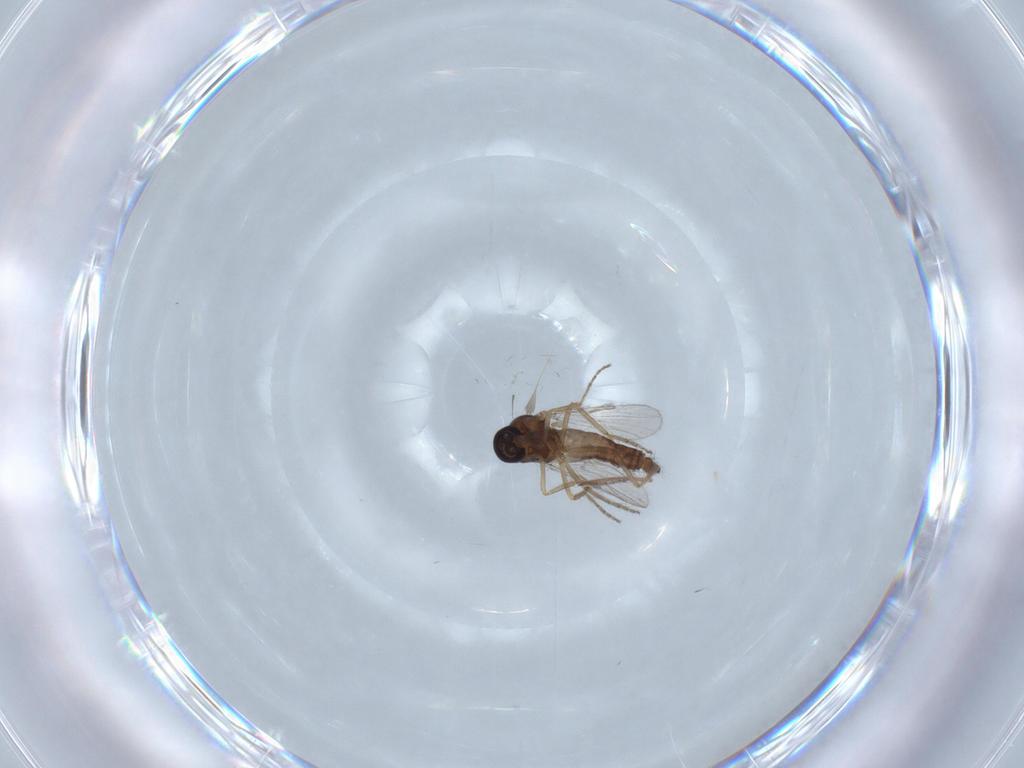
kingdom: Animalia
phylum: Arthropoda
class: Insecta
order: Diptera
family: Ceratopogonidae
